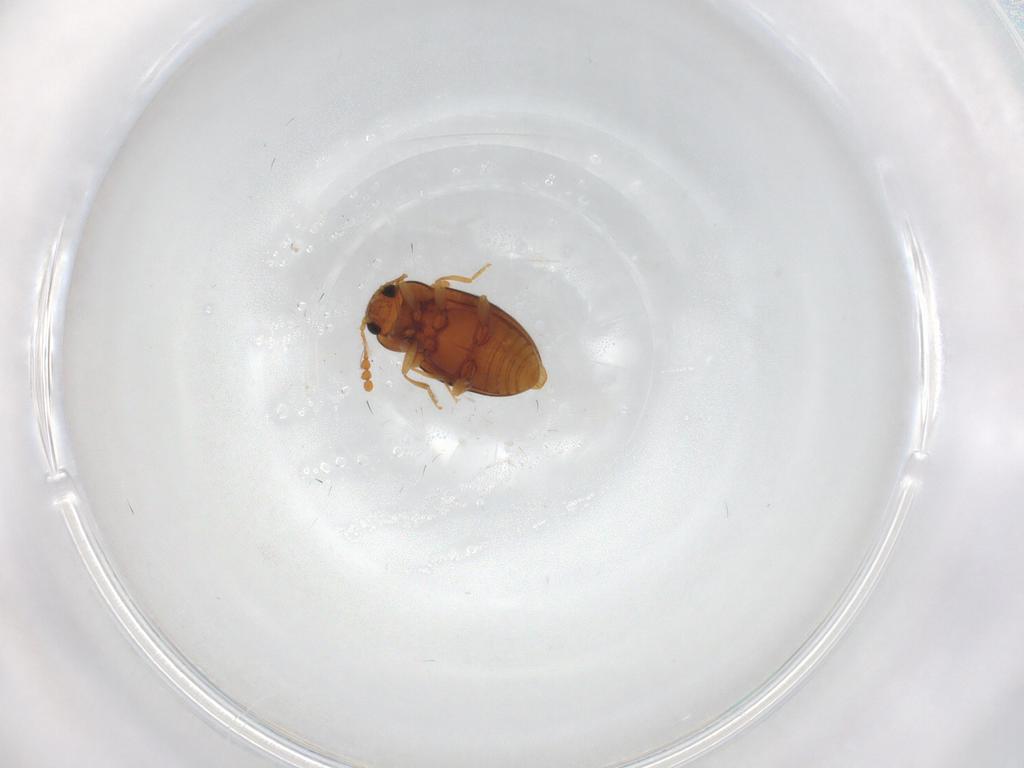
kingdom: Animalia
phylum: Arthropoda
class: Insecta
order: Coleoptera
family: Erotylidae
